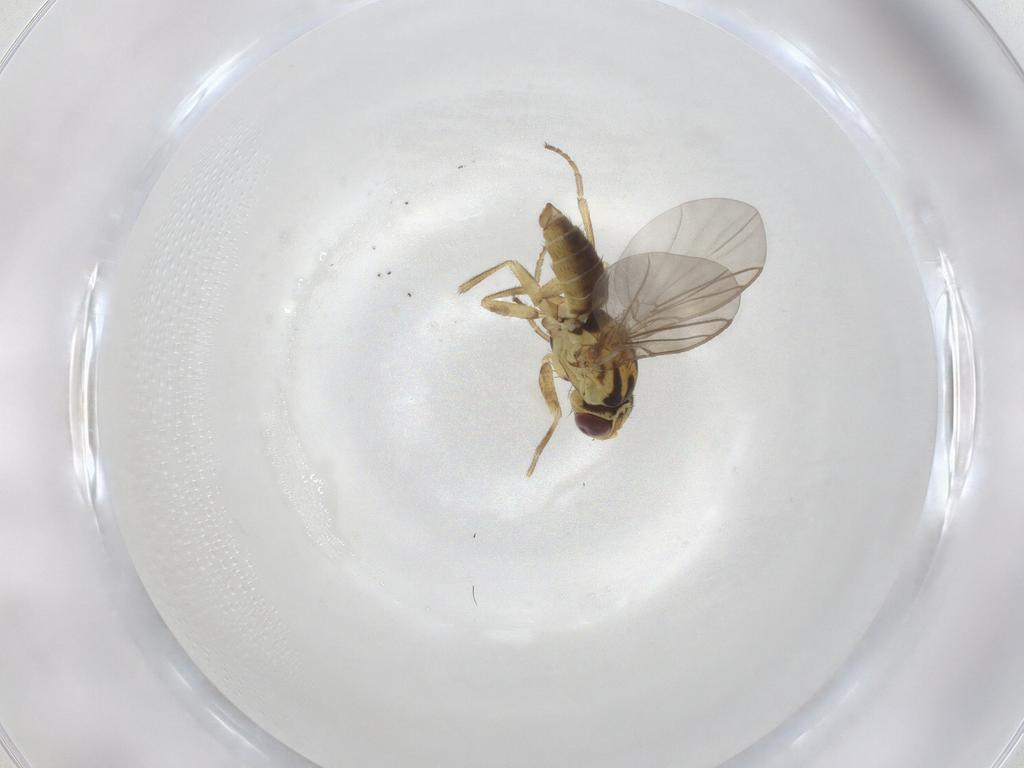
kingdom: Animalia
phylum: Arthropoda
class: Insecta
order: Diptera
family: Agromyzidae
